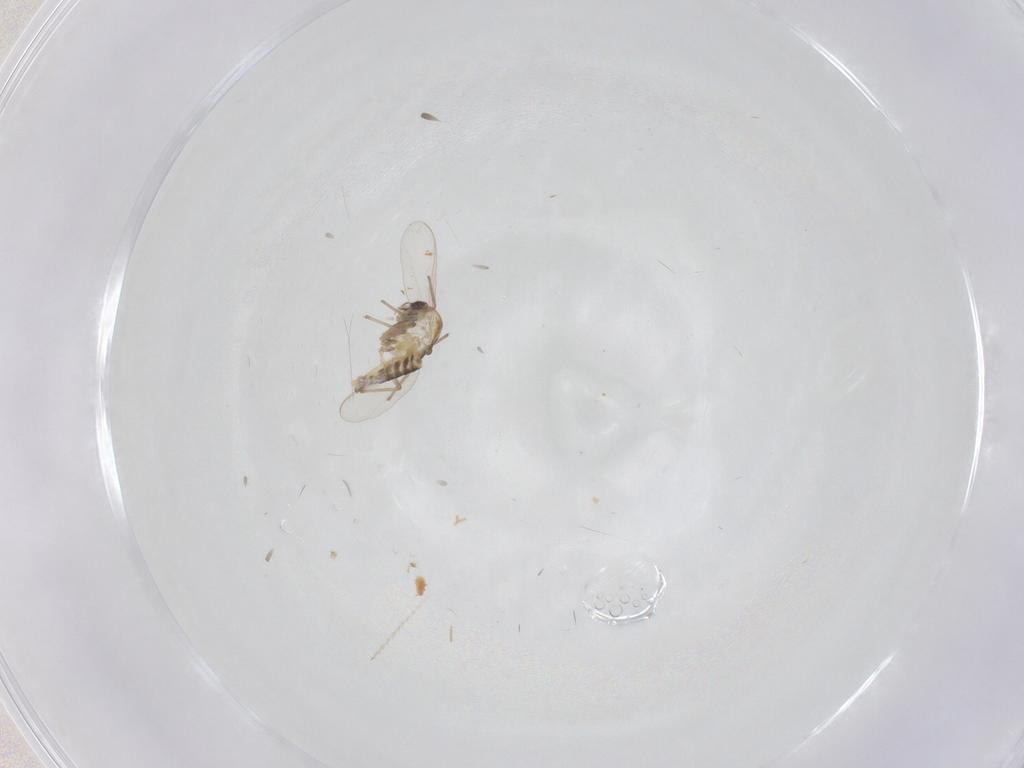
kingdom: Animalia
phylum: Arthropoda
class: Insecta
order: Diptera
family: Chironomidae
